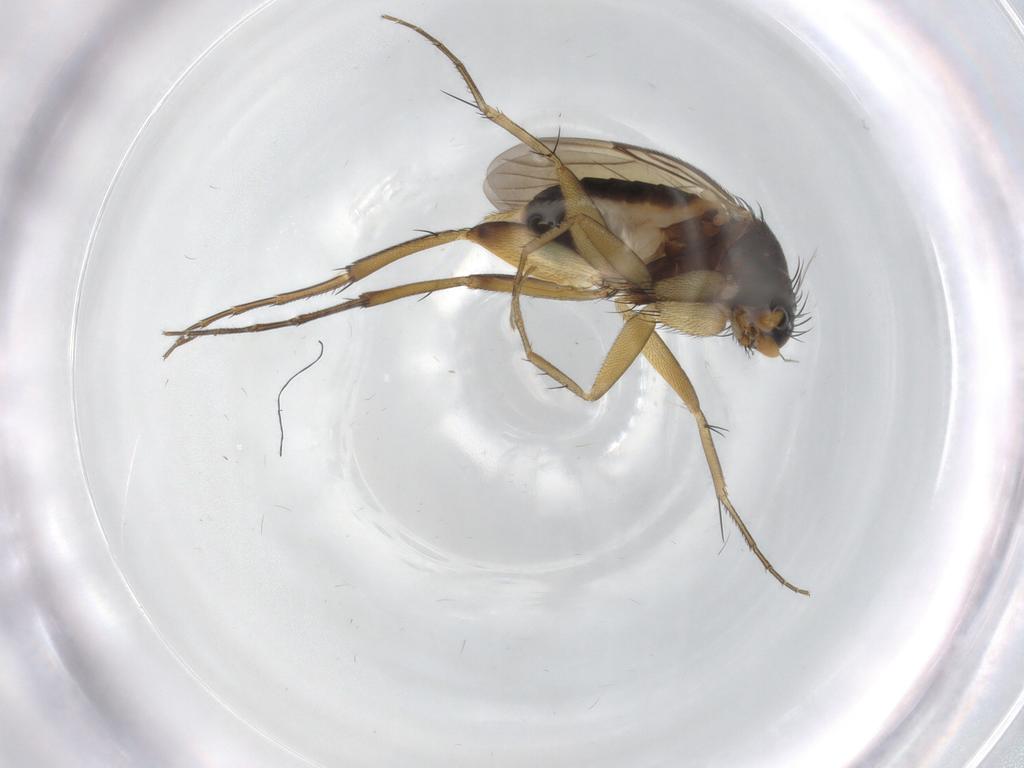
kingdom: Animalia
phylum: Arthropoda
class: Insecta
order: Diptera
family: Phoridae
